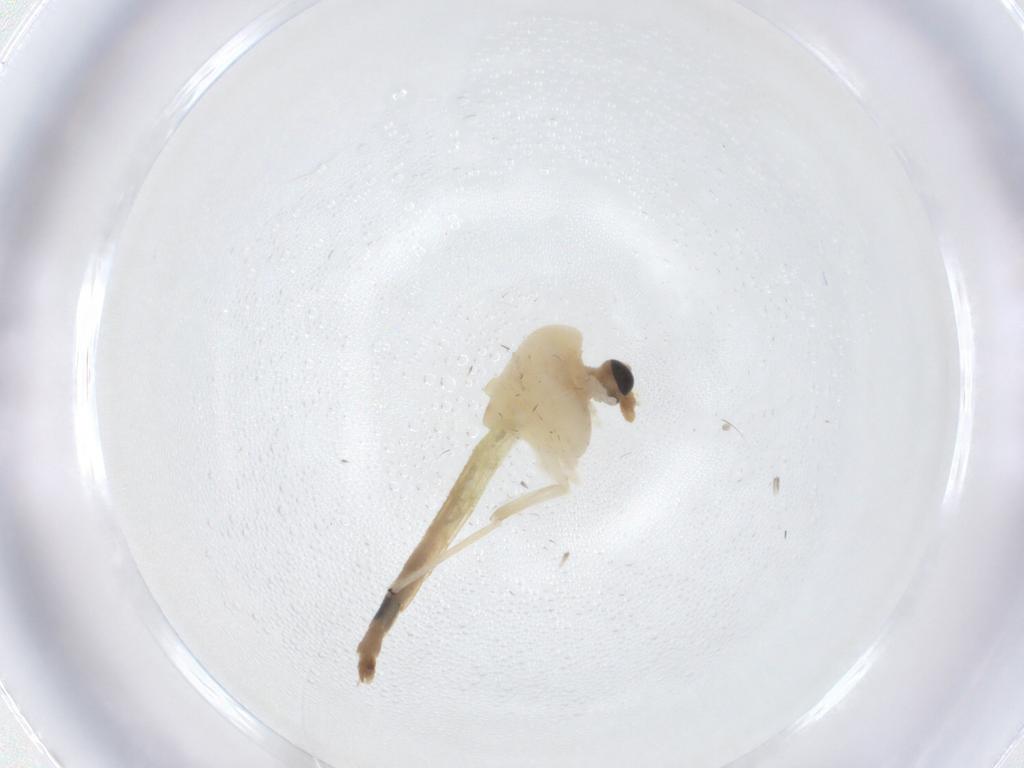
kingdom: Animalia
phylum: Arthropoda
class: Insecta
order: Diptera
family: Chironomidae
